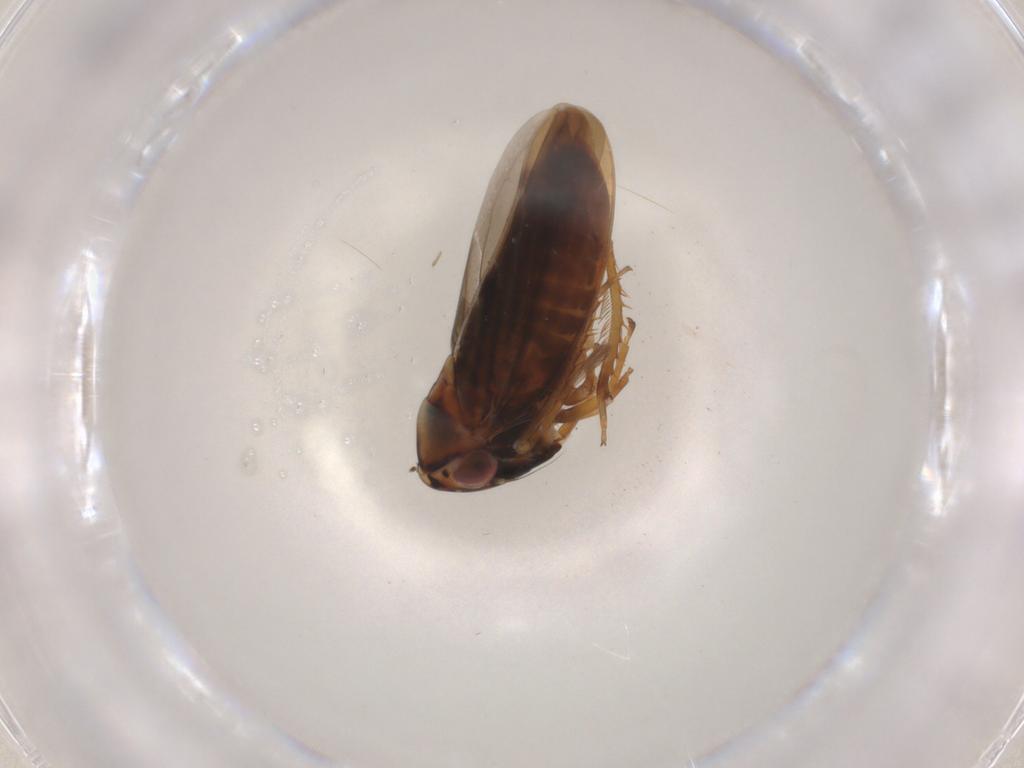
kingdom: Animalia
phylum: Arthropoda
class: Insecta
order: Hemiptera
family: Cicadellidae
